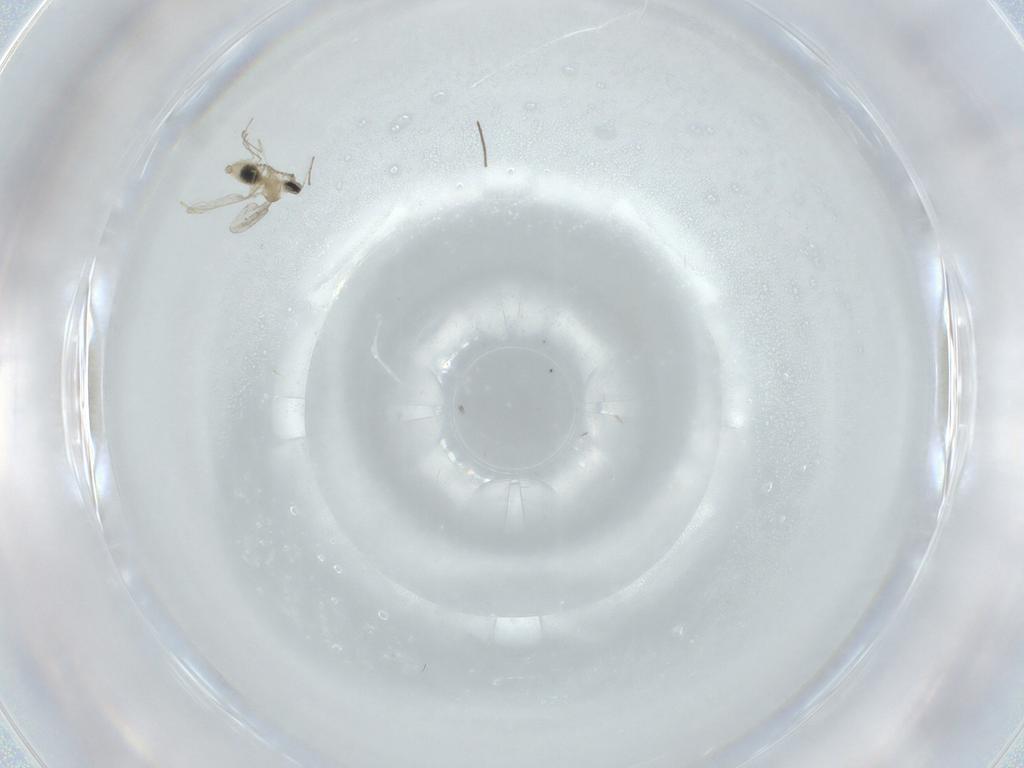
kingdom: Animalia
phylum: Arthropoda
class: Insecta
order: Diptera
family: Cecidomyiidae
